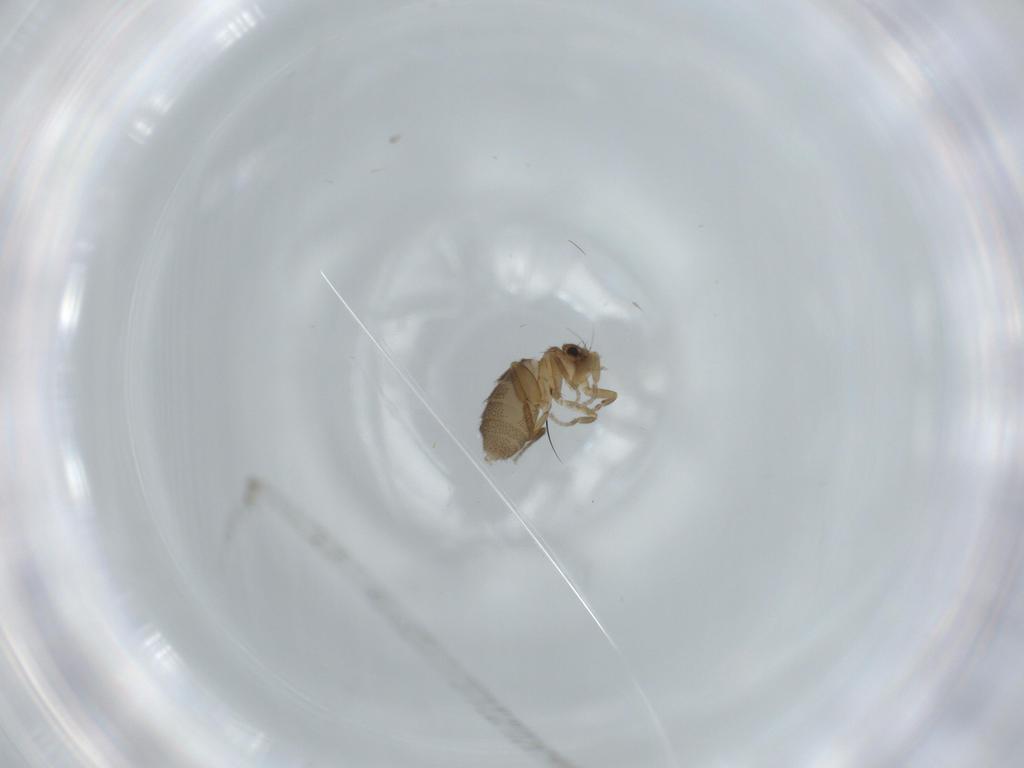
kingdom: Animalia
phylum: Arthropoda
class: Insecta
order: Diptera
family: Phoridae
